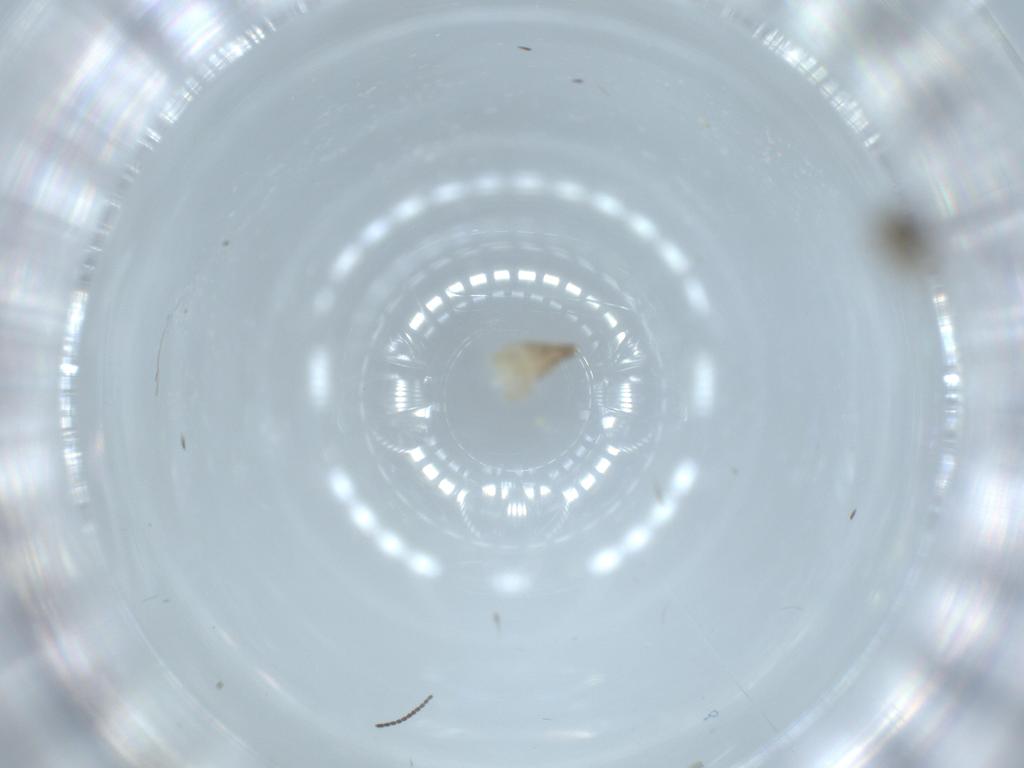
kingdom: Animalia
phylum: Arthropoda
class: Insecta
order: Diptera
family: Ceratopogonidae
